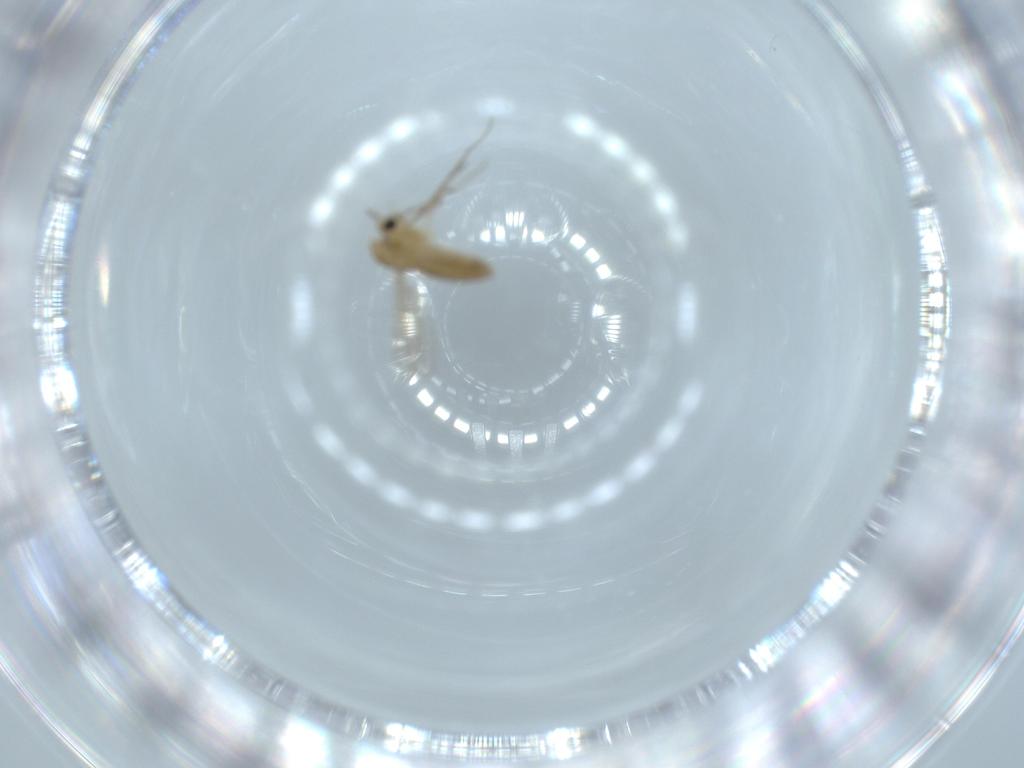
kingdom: Animalia
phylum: Arthropoda
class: Insecta
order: Diptera
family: Chironomidae
